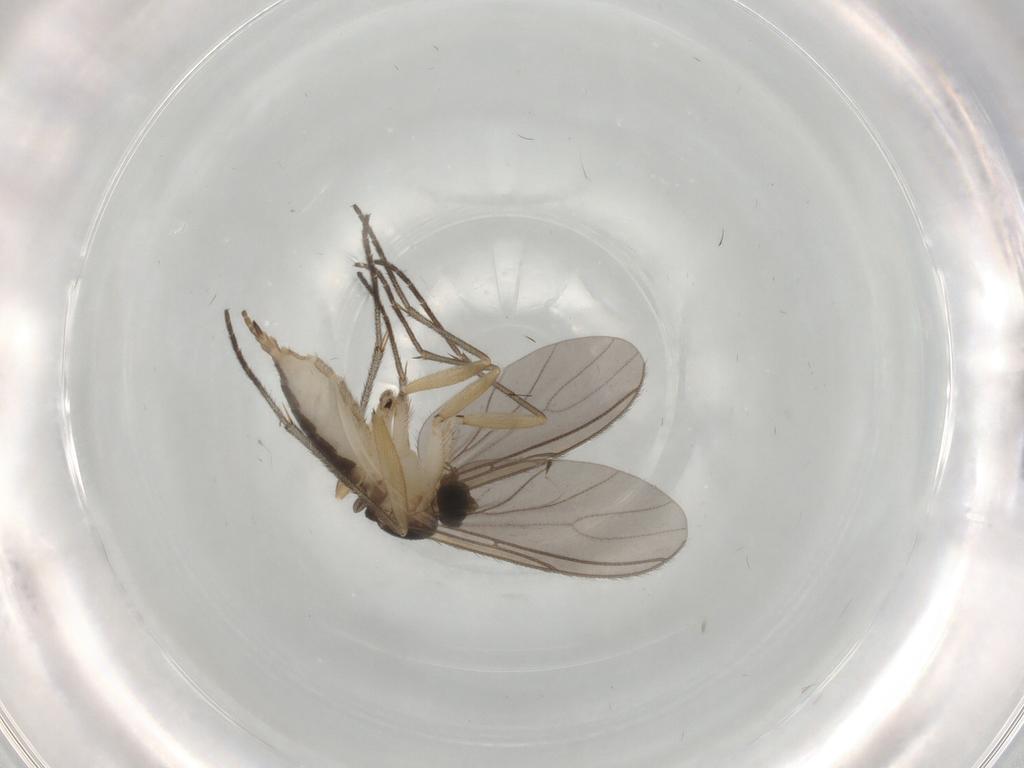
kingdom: Animalia
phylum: Arthropoda
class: Insecta
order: Diptera
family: Sciaridae
